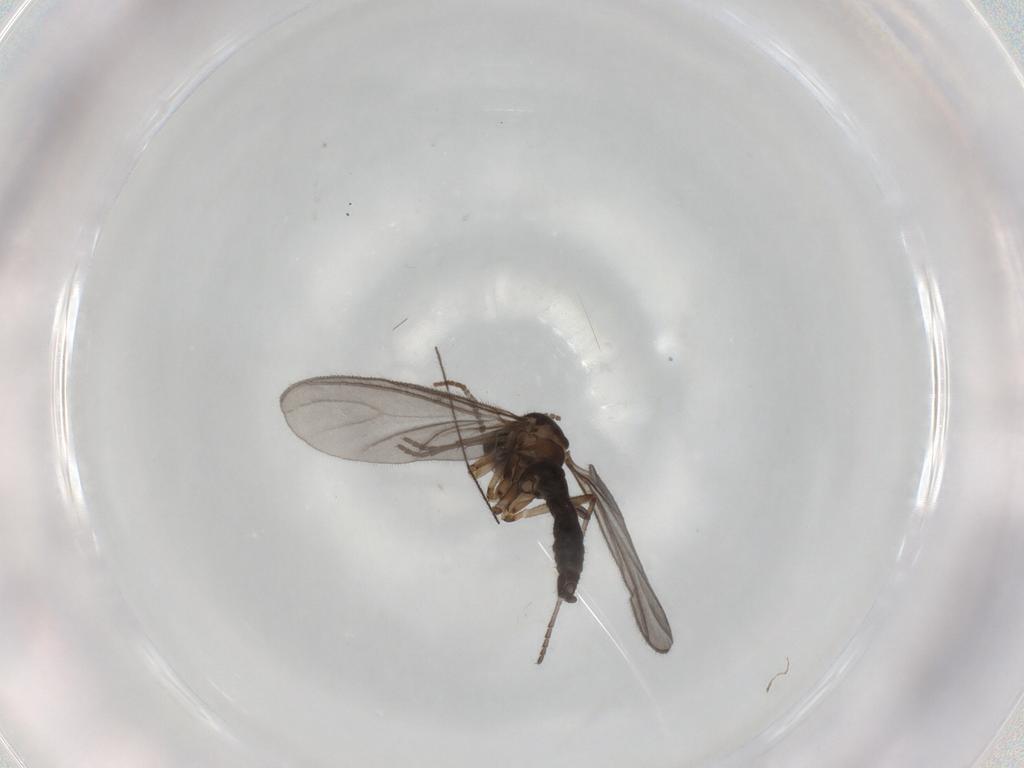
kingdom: Animalia
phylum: Arthropoda
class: Insecta
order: Diptera
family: Sciaridae
